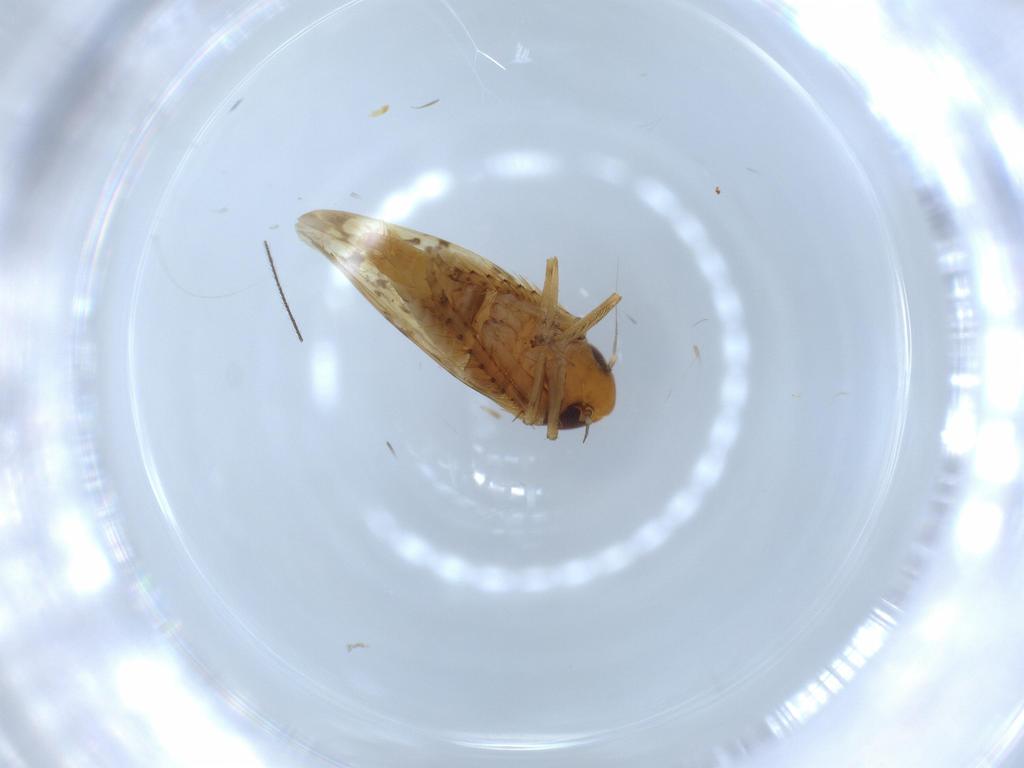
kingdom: Animalia
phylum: Arthropoda
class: Insecta
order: Hemiptera
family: Cicadellidae
